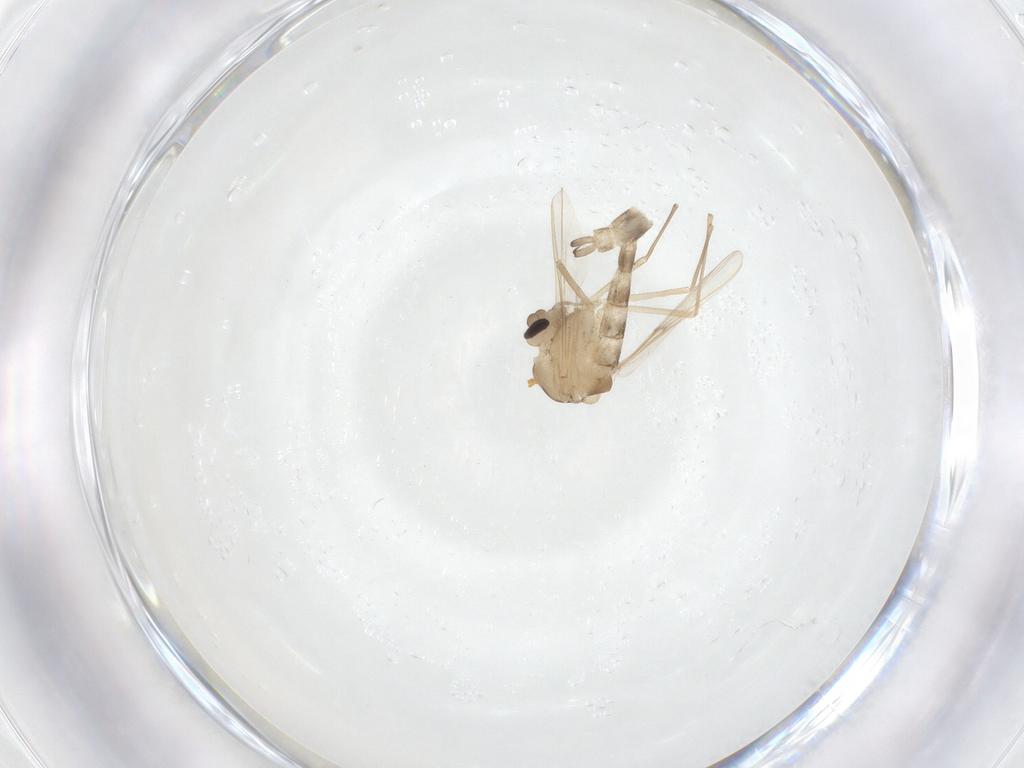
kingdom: Animalia
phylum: Arthropoda
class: Insecta
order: Diptera
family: Chironomidae
